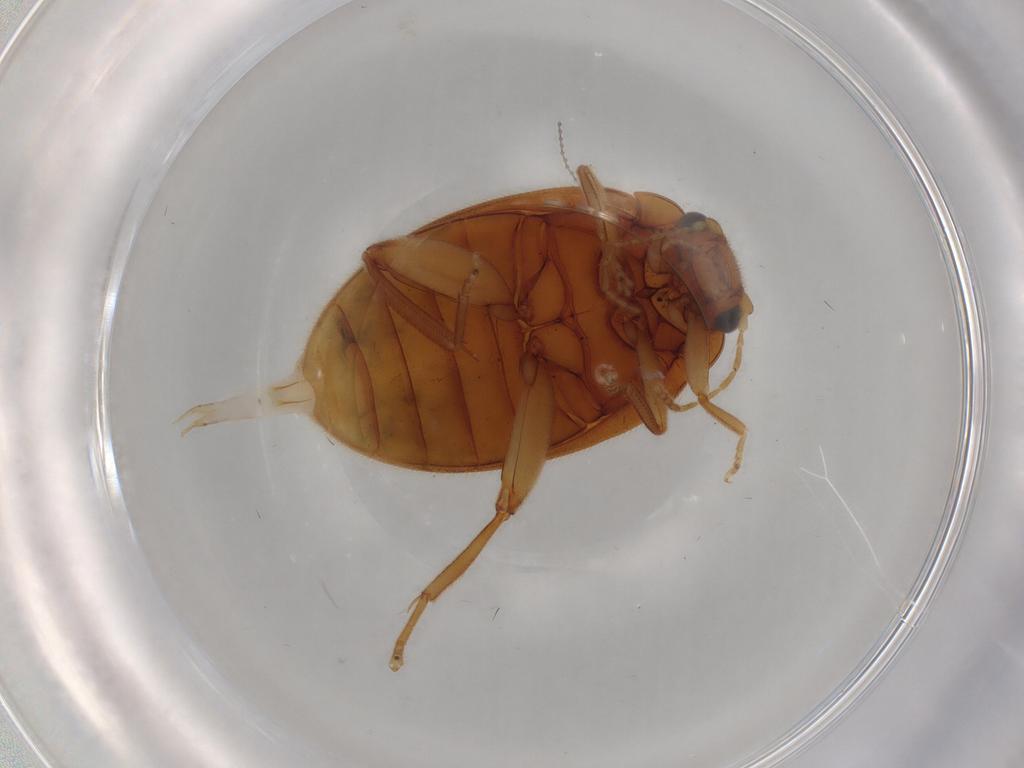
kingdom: Animalia
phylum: Arthropoda
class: Insecta
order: Coleoptera
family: Scirtidae
